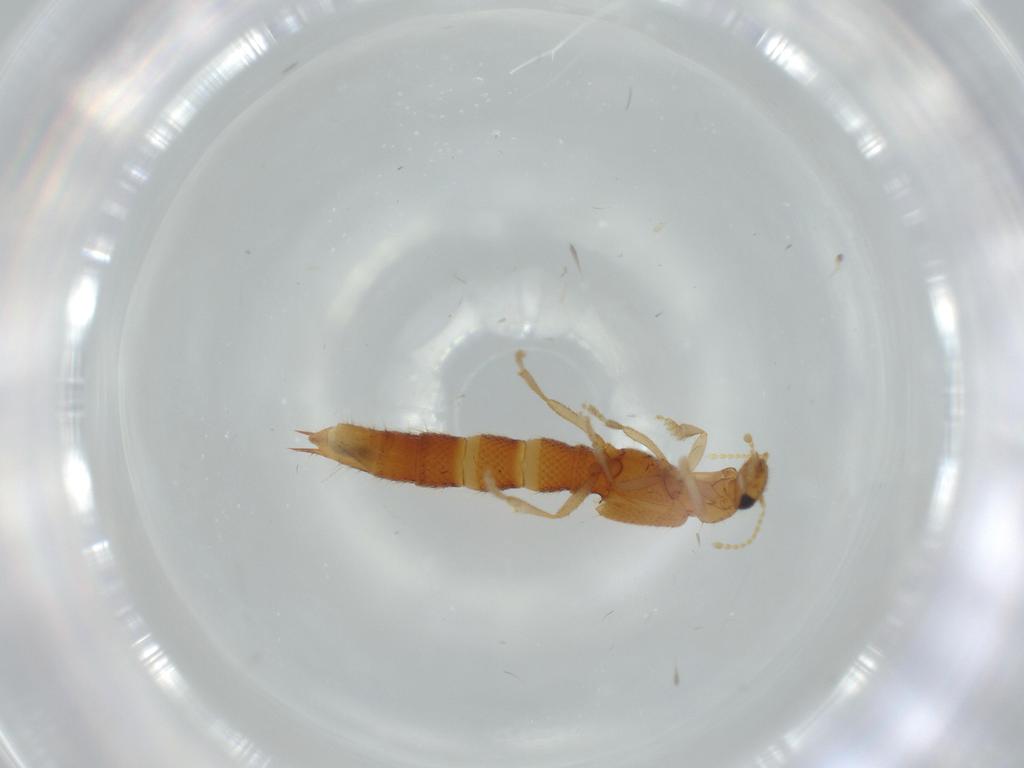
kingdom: Animalia
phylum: Arthropoda
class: Insecta
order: Coleoptera
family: Staphylinidae
